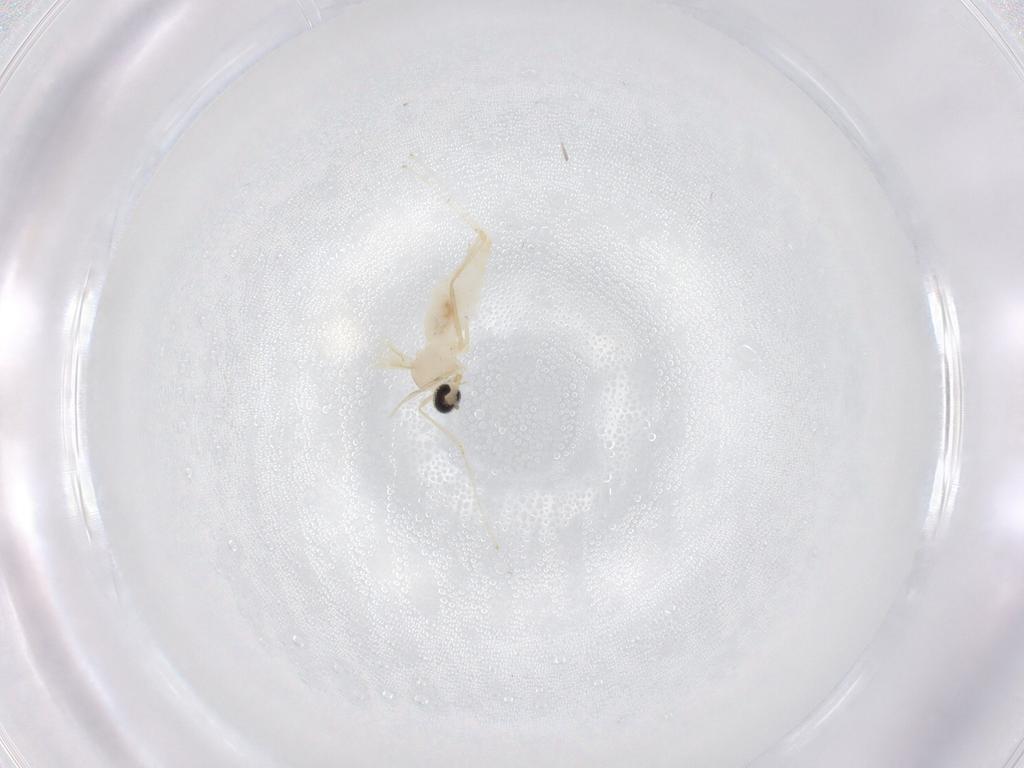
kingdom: Animalia
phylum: Arthropoda
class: Insecta
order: Diptera
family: Cecidomyiidae
